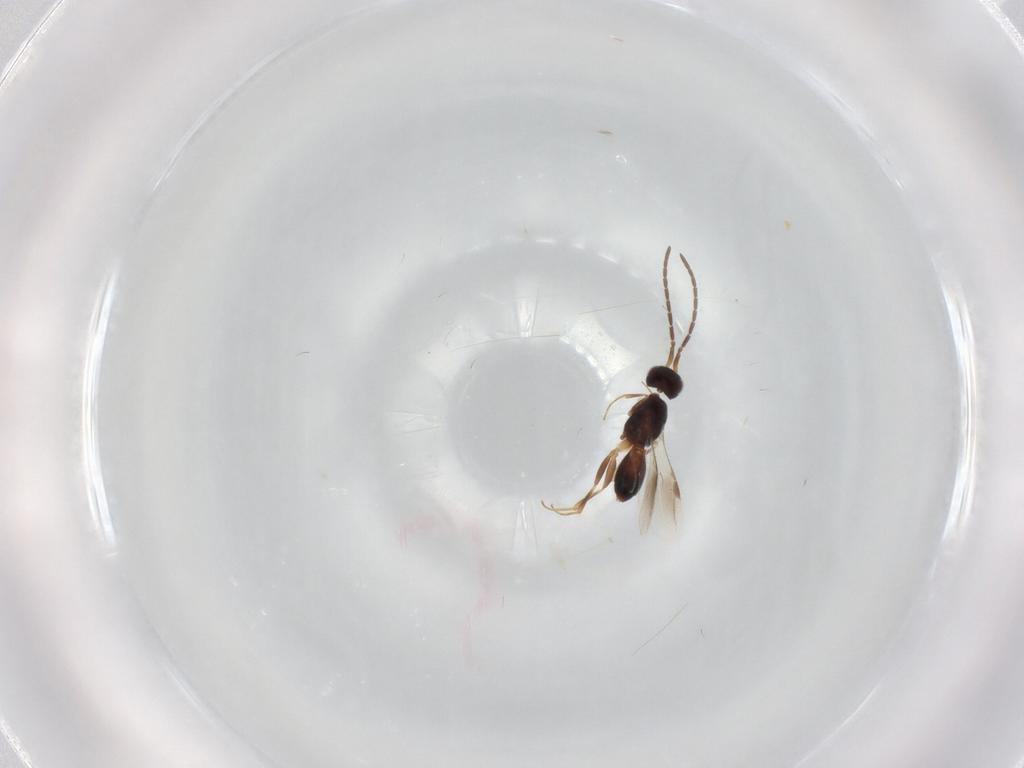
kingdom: Animalia
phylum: Arthropoda
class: Insecta
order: Hymenoptera
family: Megaspilidae
